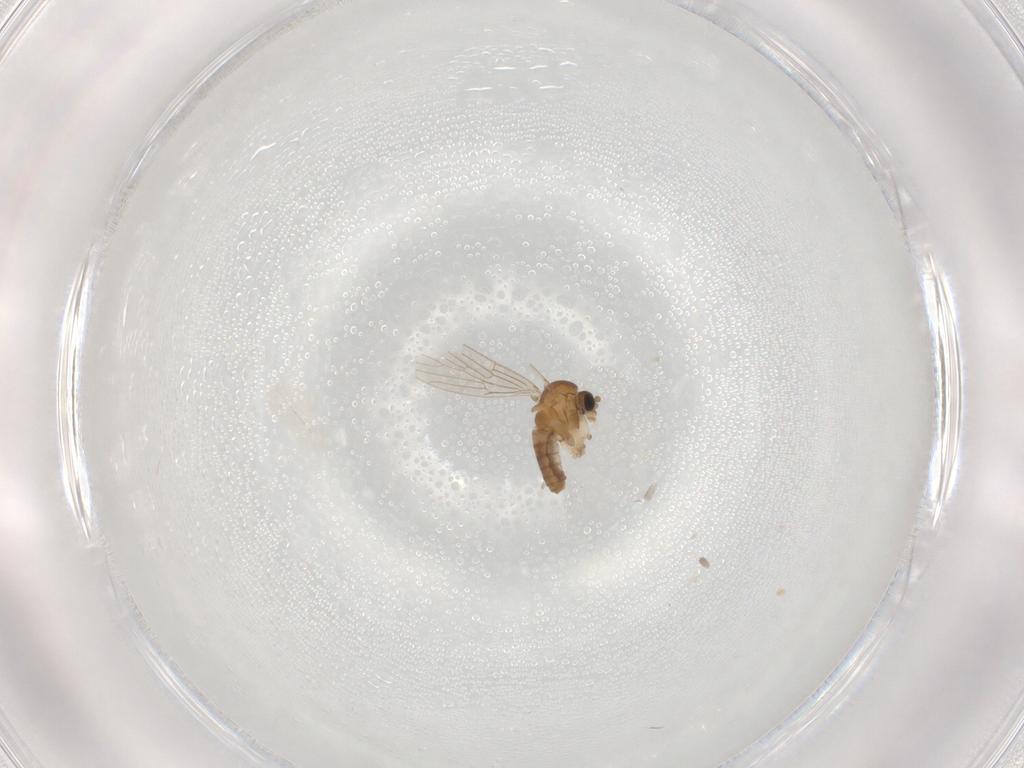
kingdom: Animalia
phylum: Arthropoda
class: Insecta
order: Diptera
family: Psychodidae
